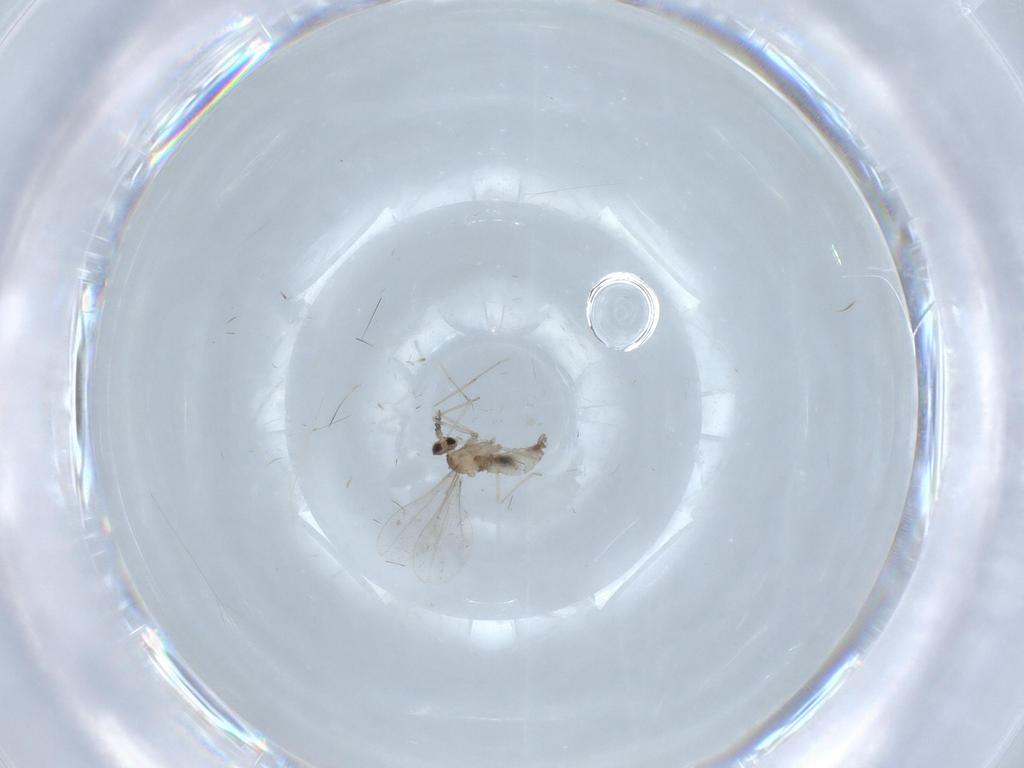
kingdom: Animalia
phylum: Arthropoda
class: Insecta
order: Diptera
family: Cecidomyiidae
